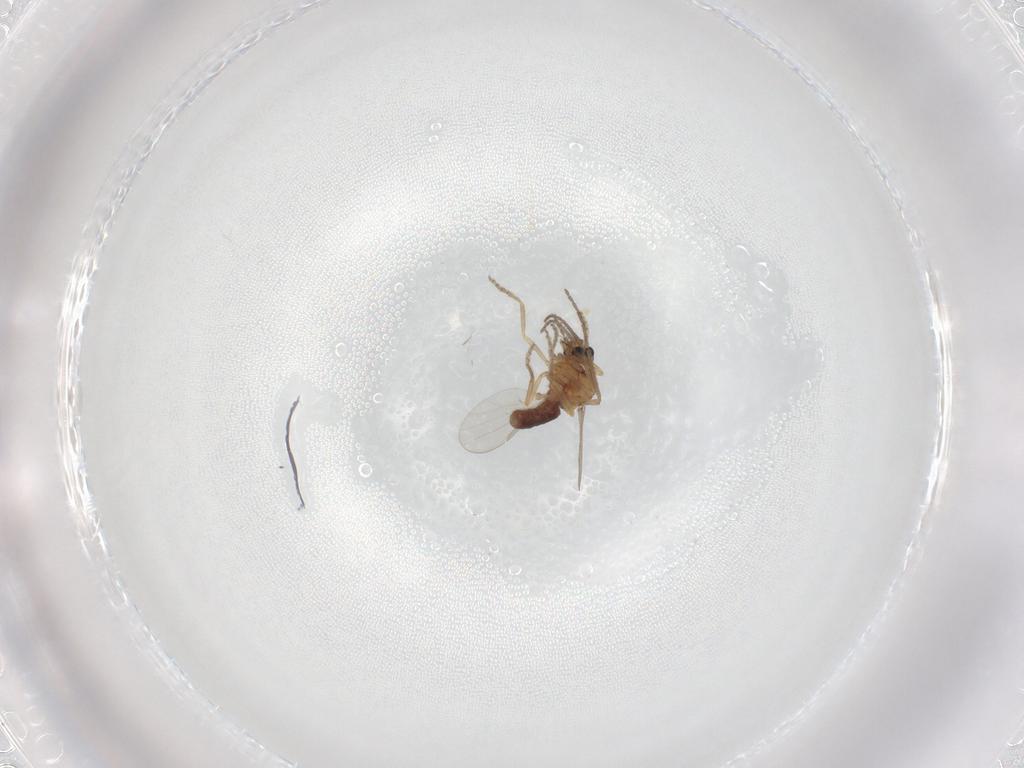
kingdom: Animalia
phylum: Arthropoda
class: Insecta
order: Diptera
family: Ceratopogonidae
